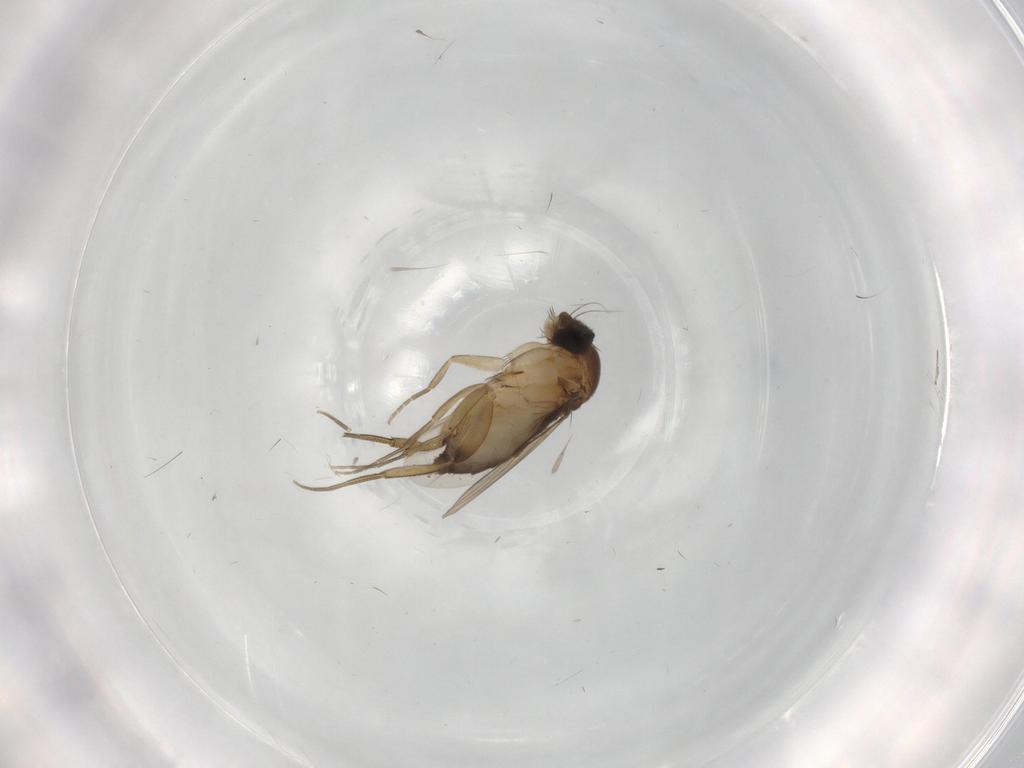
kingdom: Animalia
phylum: Arthropoda
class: Insecta
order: Diptera
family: Phoridae
